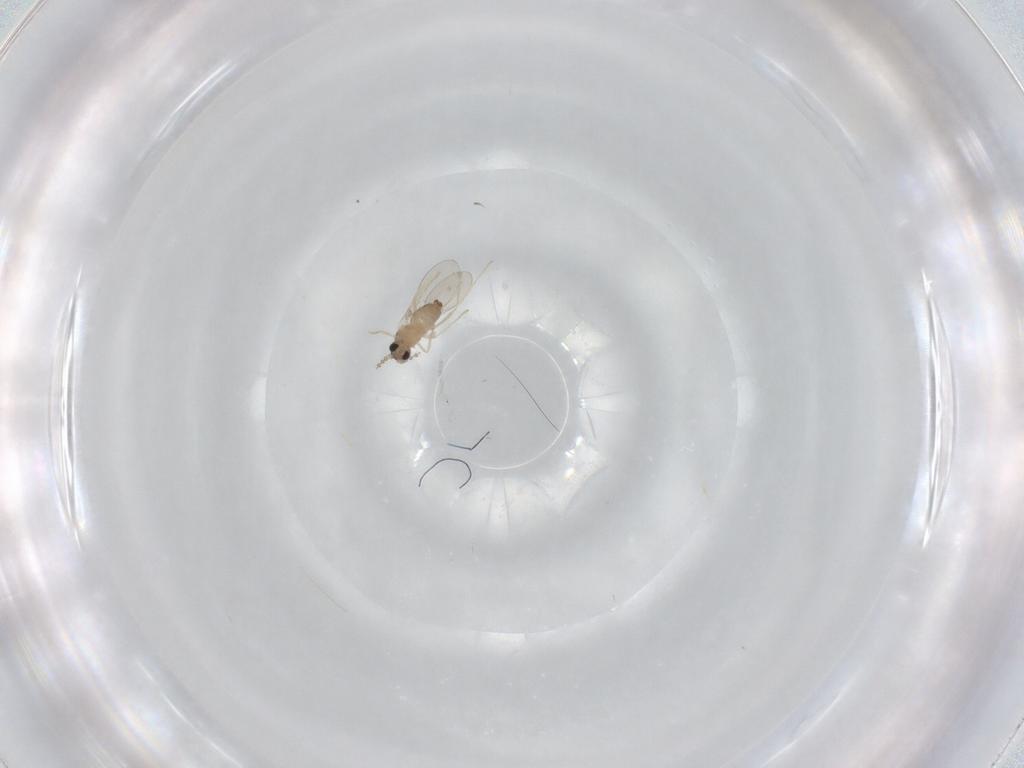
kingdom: Animalia
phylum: Arthropoda
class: Insecta
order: Diptera
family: Cecidomyiidae
